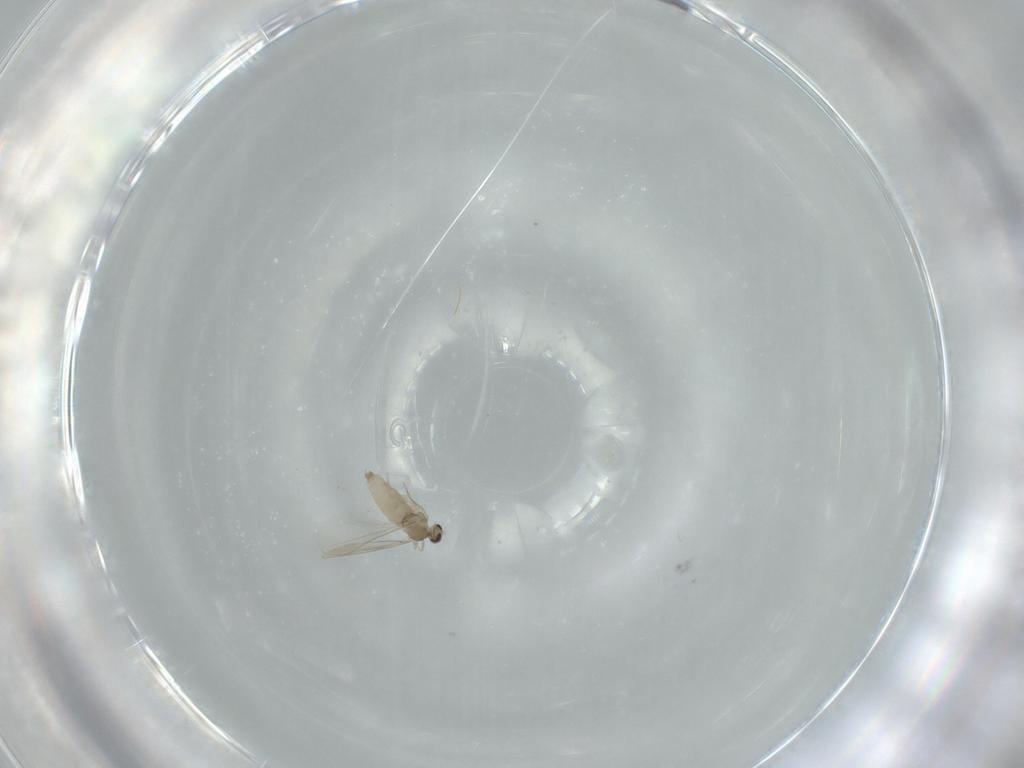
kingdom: Animalia
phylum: Arthropoda
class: Insecta
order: Diptera
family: Cecidomyiidae
